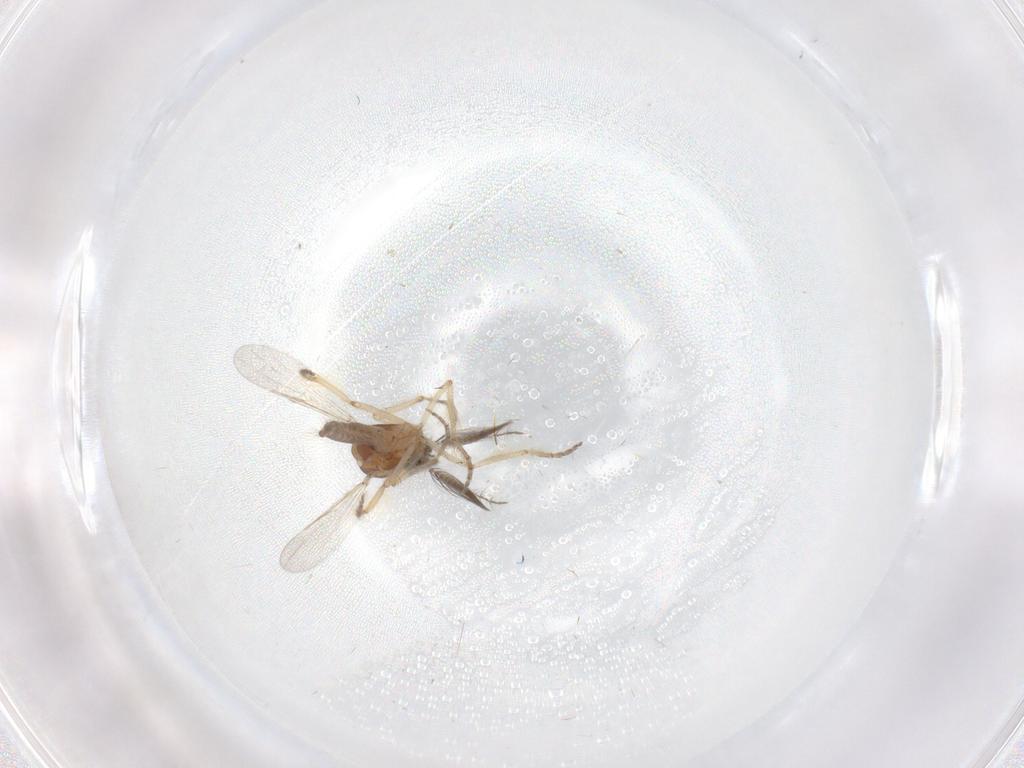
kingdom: Animalia
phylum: Arthropoda
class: Insecta
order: Diptera
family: Ceratopogonidae
